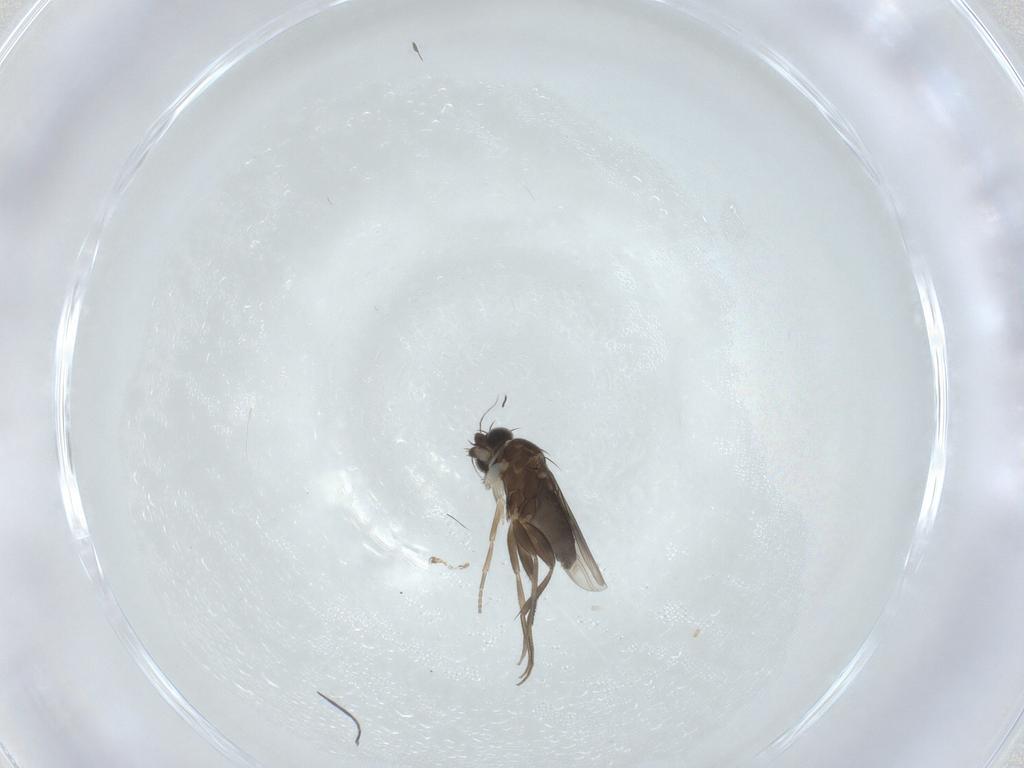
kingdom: Animalia
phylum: Arthropoda
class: Insecta
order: Diptera
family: Phoridae
